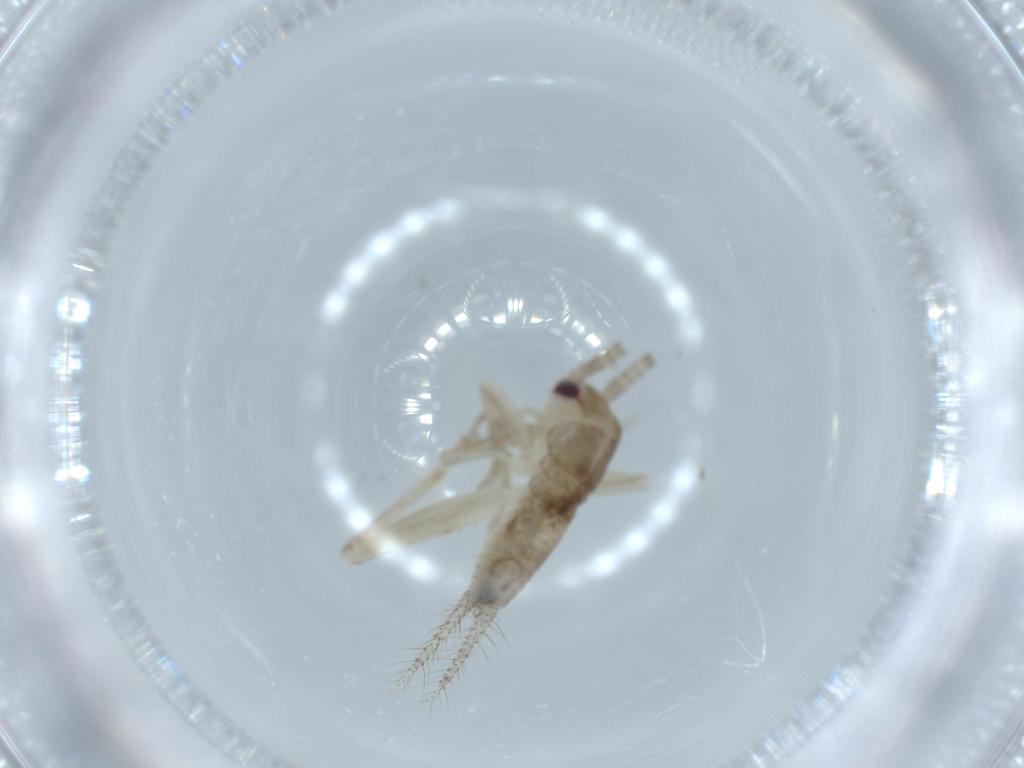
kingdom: Animalia
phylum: Arthropoda
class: Insecta
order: Orthoptera
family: Gryllidae
